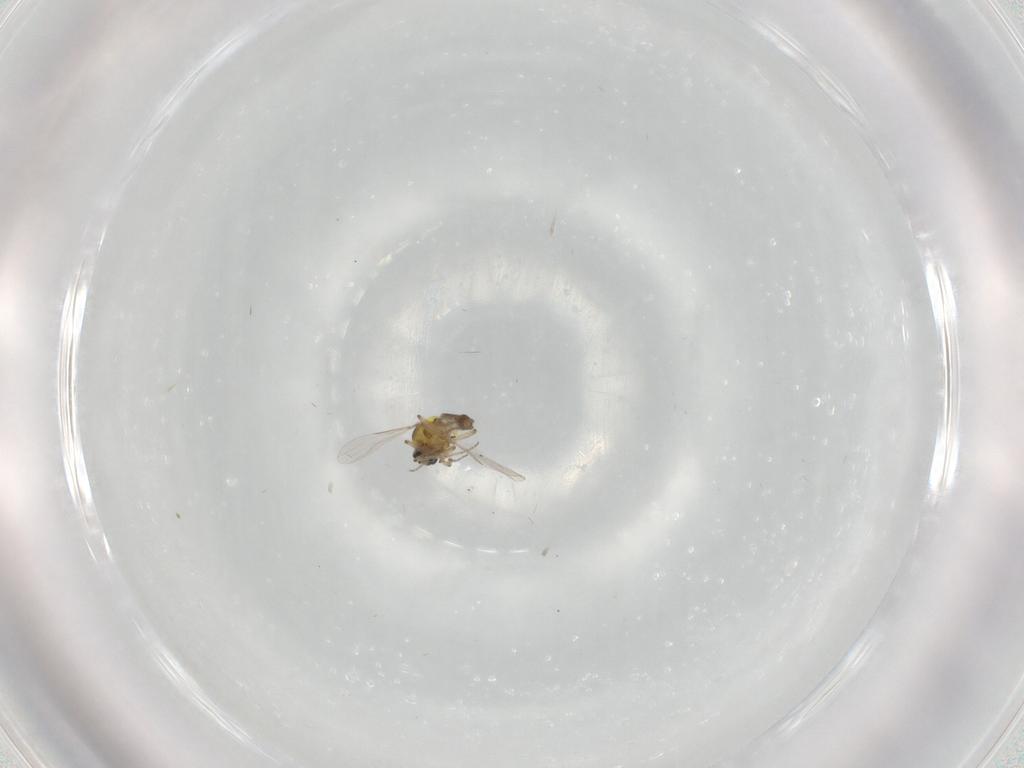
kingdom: Animalia
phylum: Arthropoda
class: Insecta
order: Diptera
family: Ceratopogonidae
